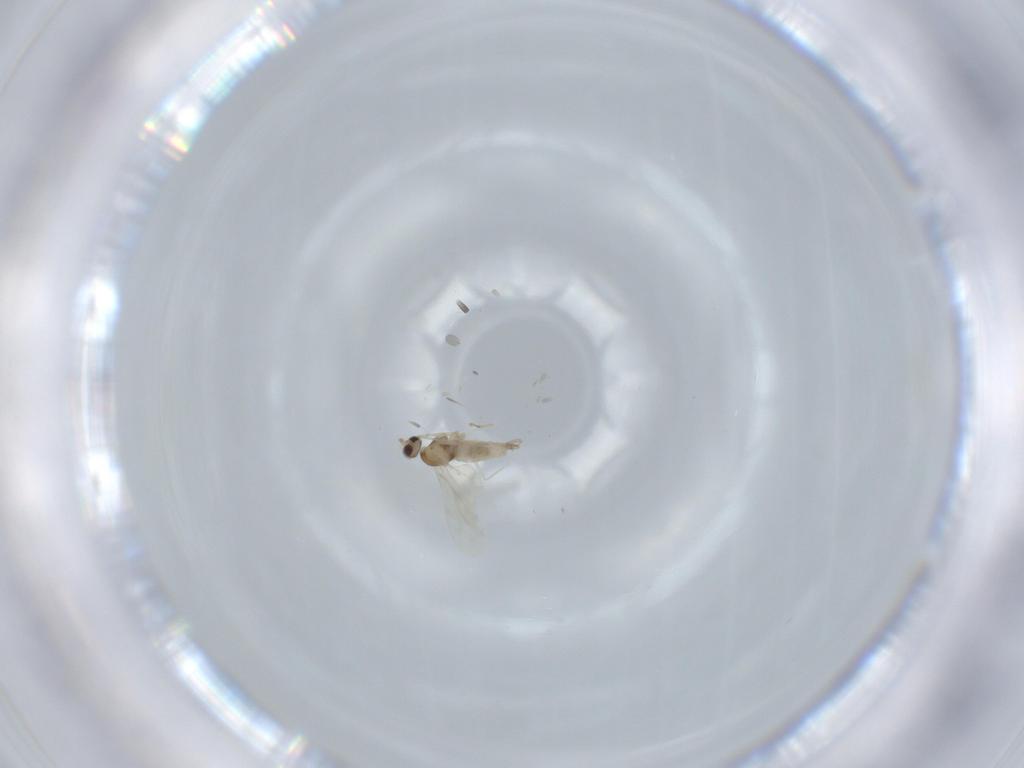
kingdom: Animalia
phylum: Arthropoda
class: Insecta
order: Diptera
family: Cecidomyiidae
